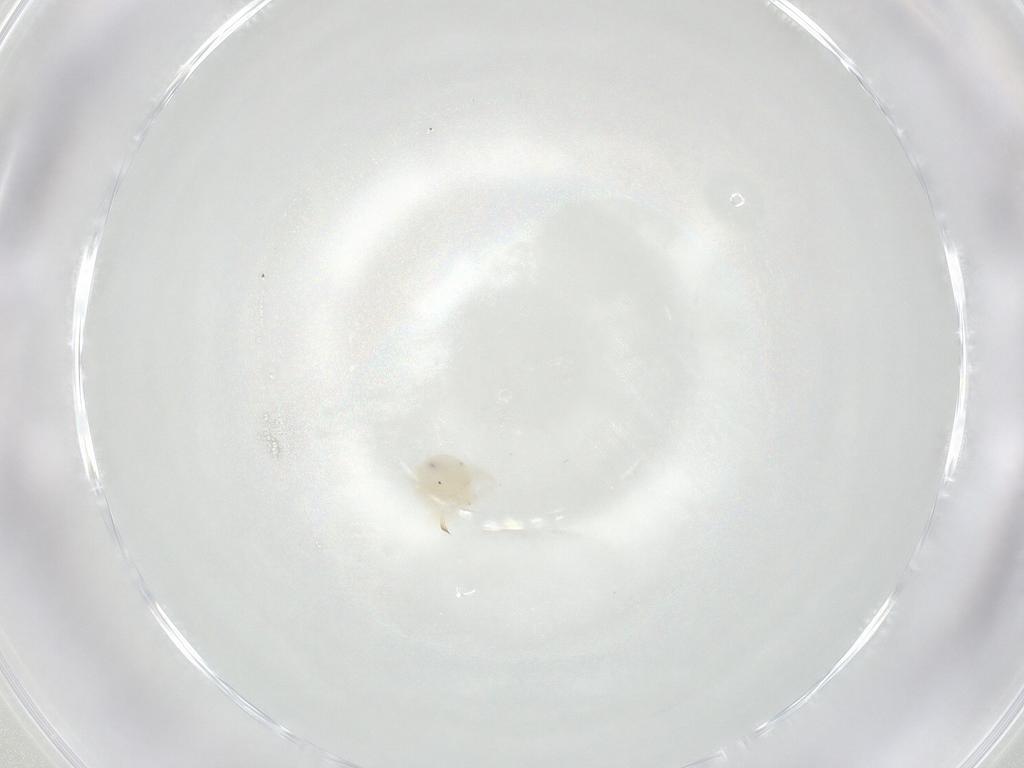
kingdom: Animalia
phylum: Arthropoda
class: Arachnida
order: Trombidiformes
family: Anystidae
